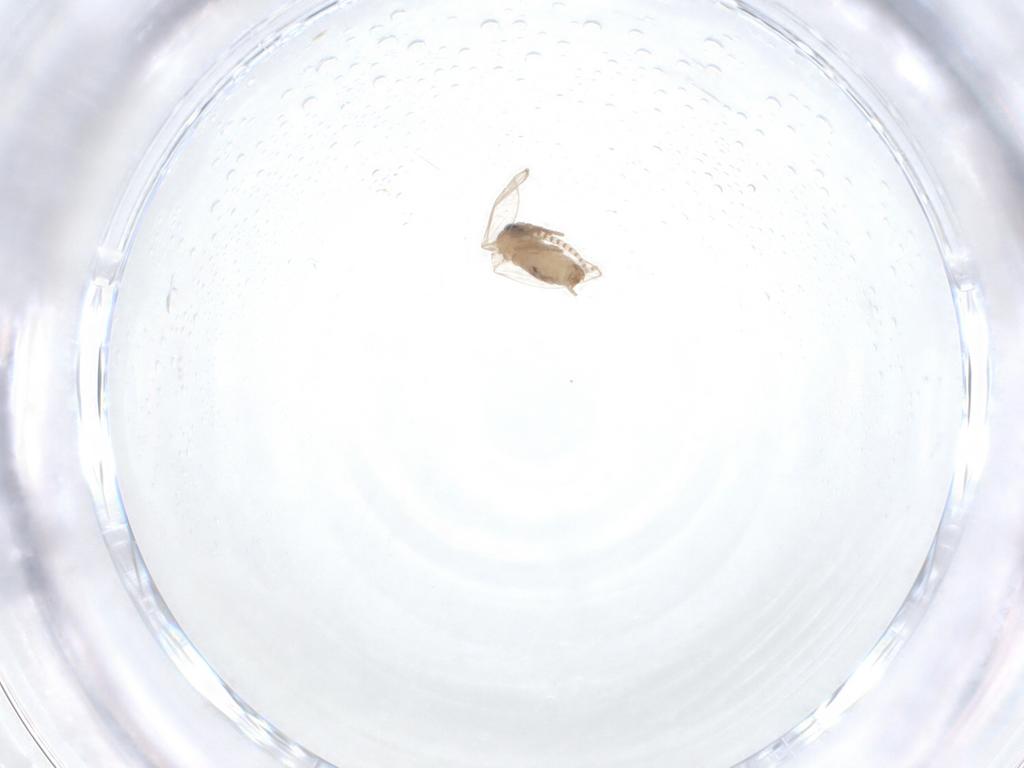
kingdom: Animalia
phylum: Arthropoda
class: Insecta
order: Diptera
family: Psychodidae
